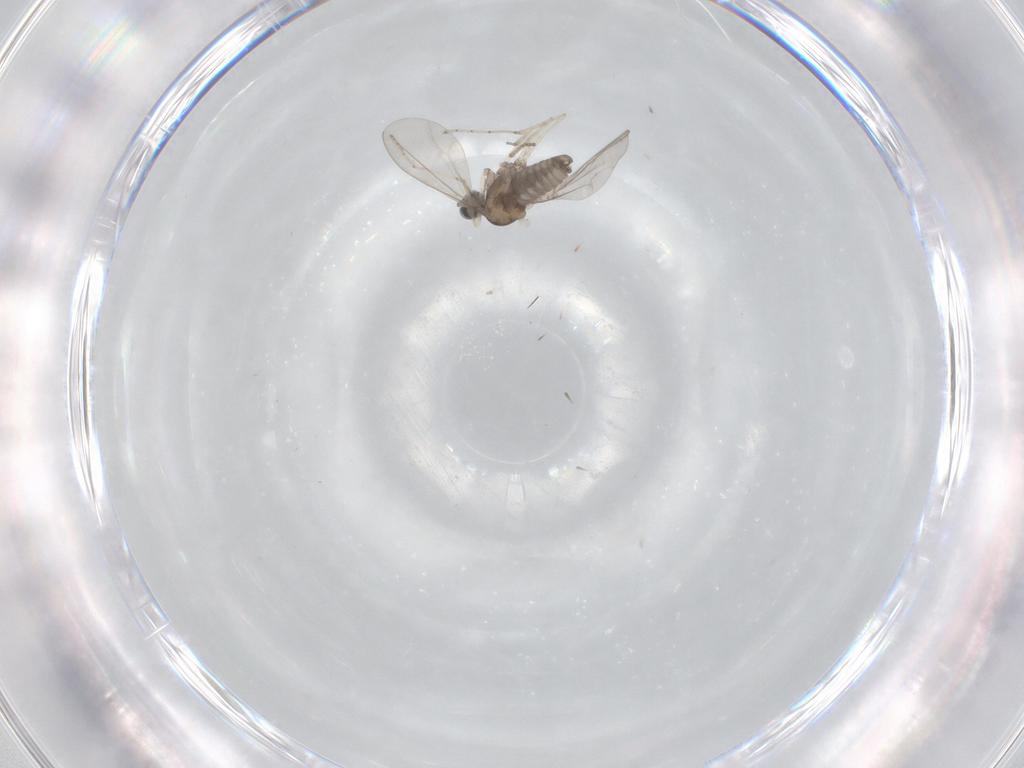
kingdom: Animalia
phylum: Arthropoda
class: Insecta
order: Diptera
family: Cecidomyiidae
